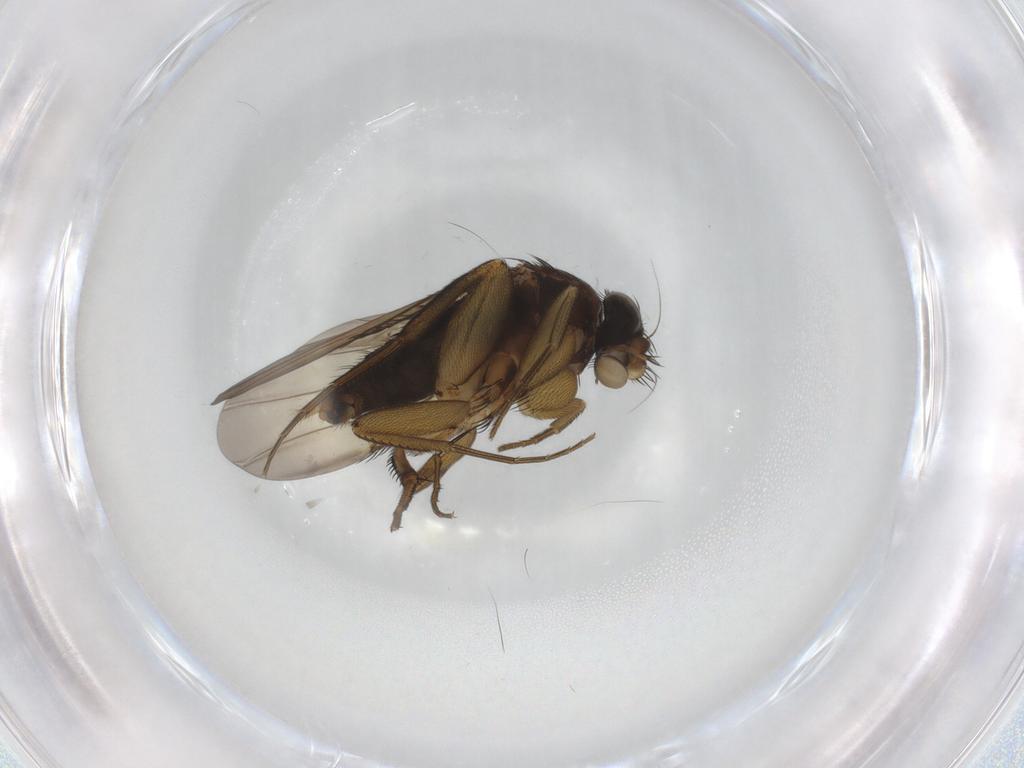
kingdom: Animalia
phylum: Arthropoda
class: Insecta
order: Diptera
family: Phoridae
